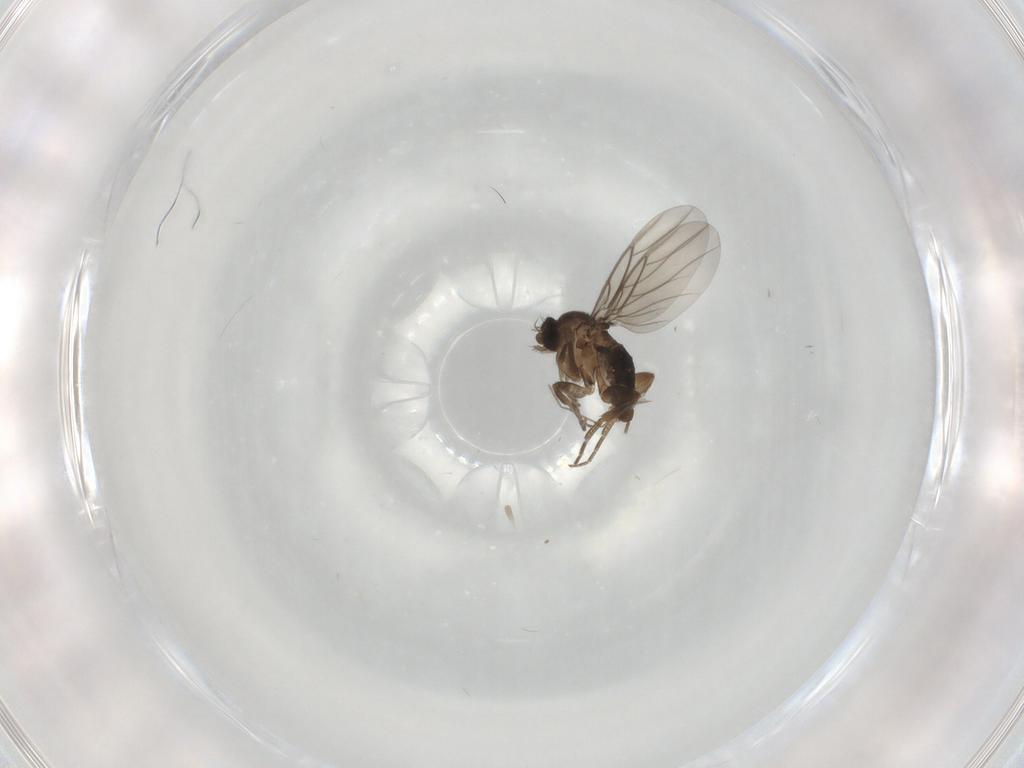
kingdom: Animalia
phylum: Arthropoda
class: Insecta
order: Diptera
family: Phoridae
